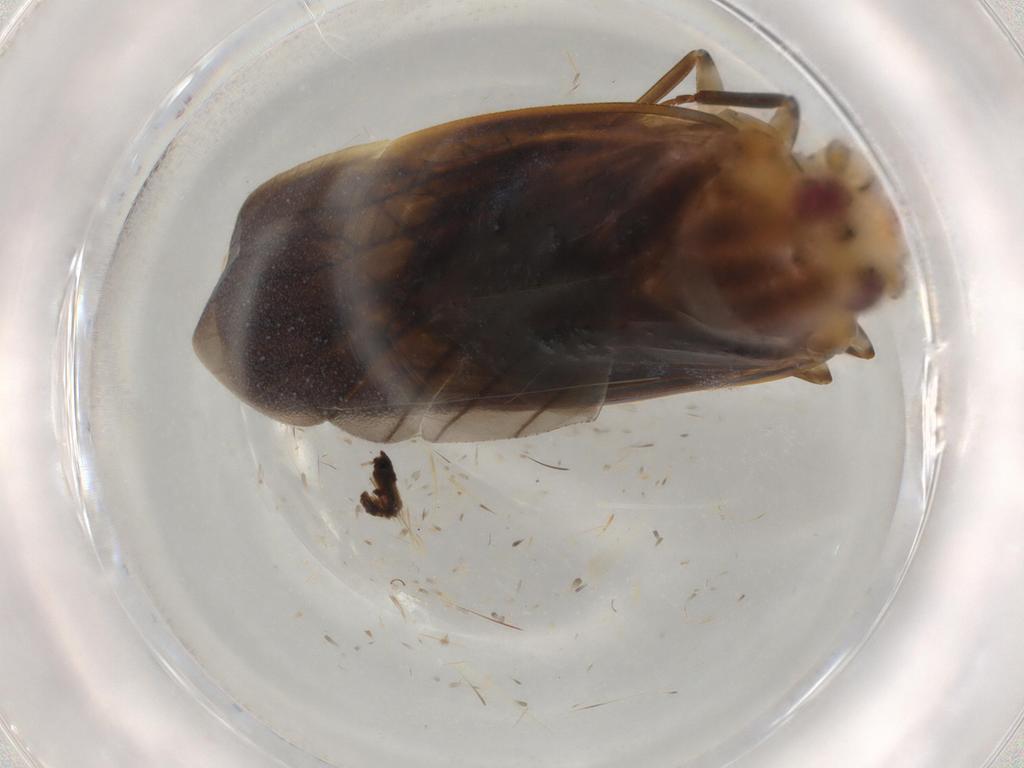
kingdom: Animalia
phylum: Arthropoda
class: Insecta
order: Hemiptera
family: Achilidae
